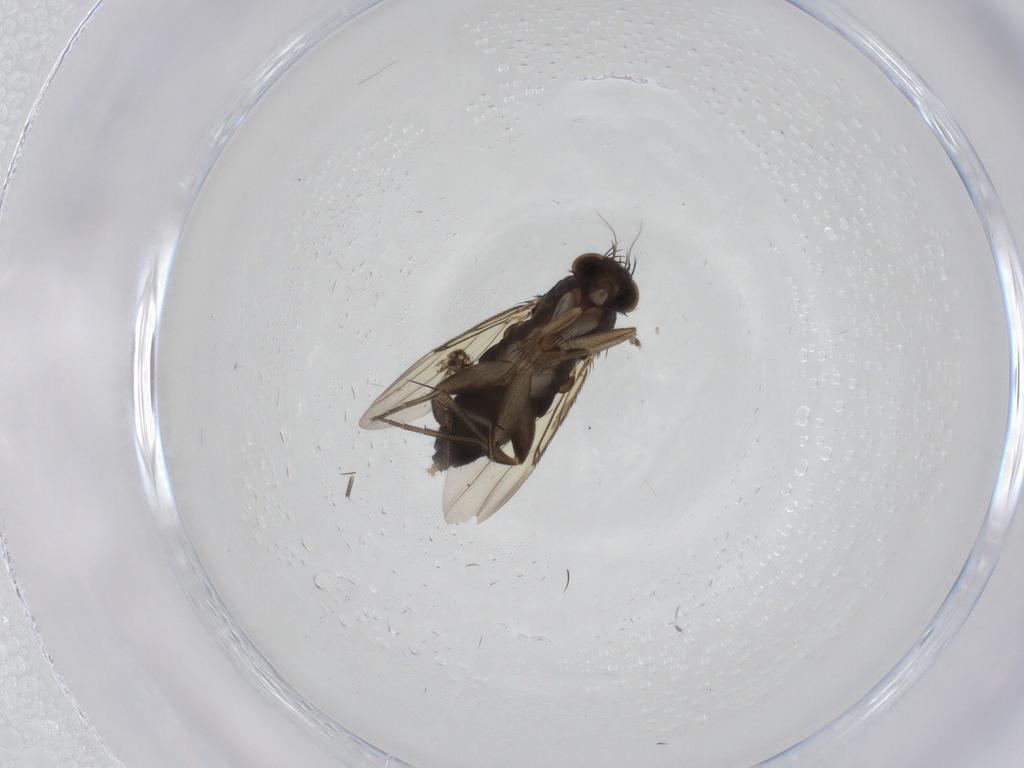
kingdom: Animalia
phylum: Arthropoda
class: Insecta
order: Diptera
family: Phoridae
